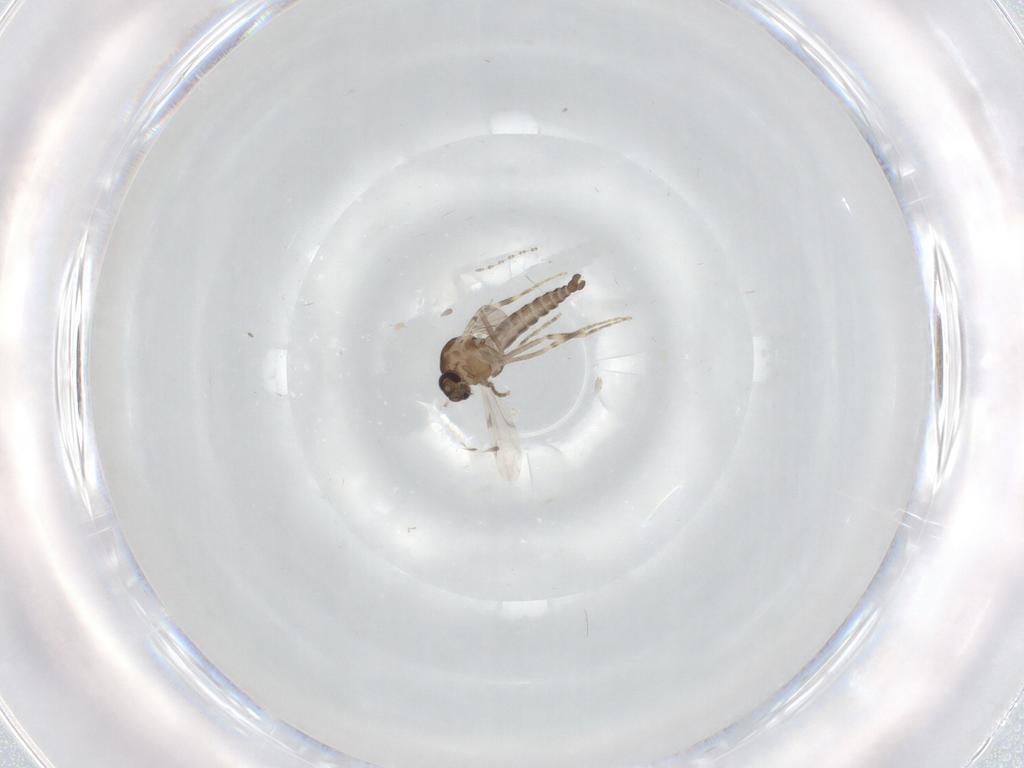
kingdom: Animalia
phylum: Arthropoda
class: Insecta
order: Diptera
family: Ceratopogonidae
